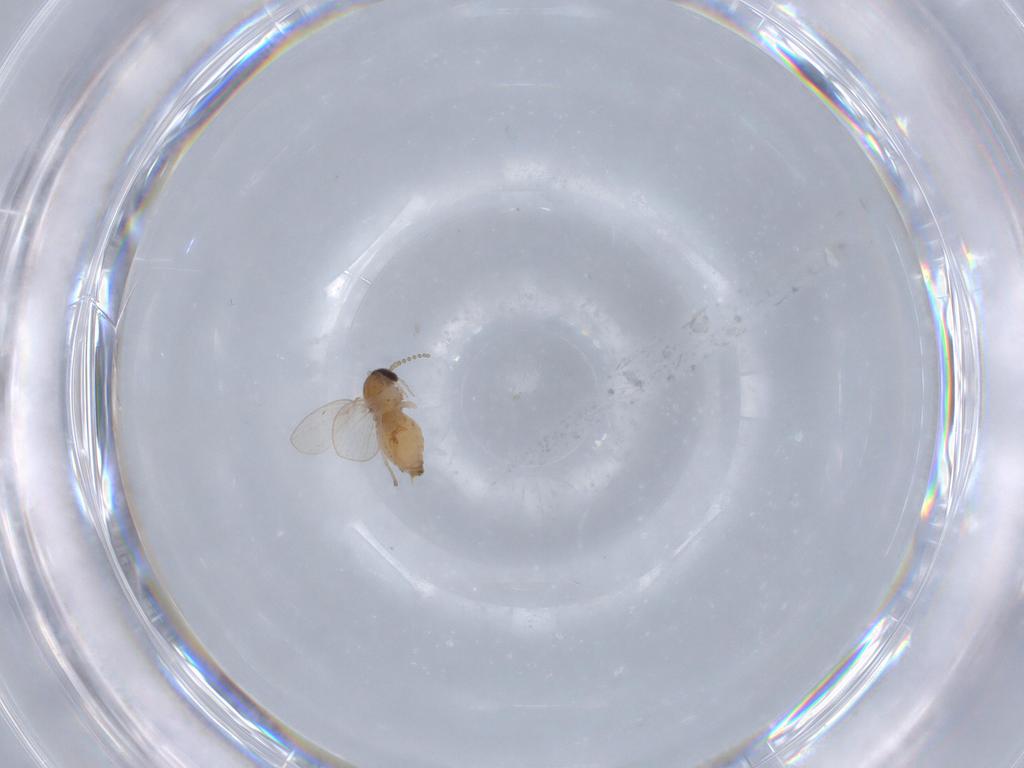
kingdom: Animalia
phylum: Arthropoda
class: Insecta
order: Diptera
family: Psychodidae
